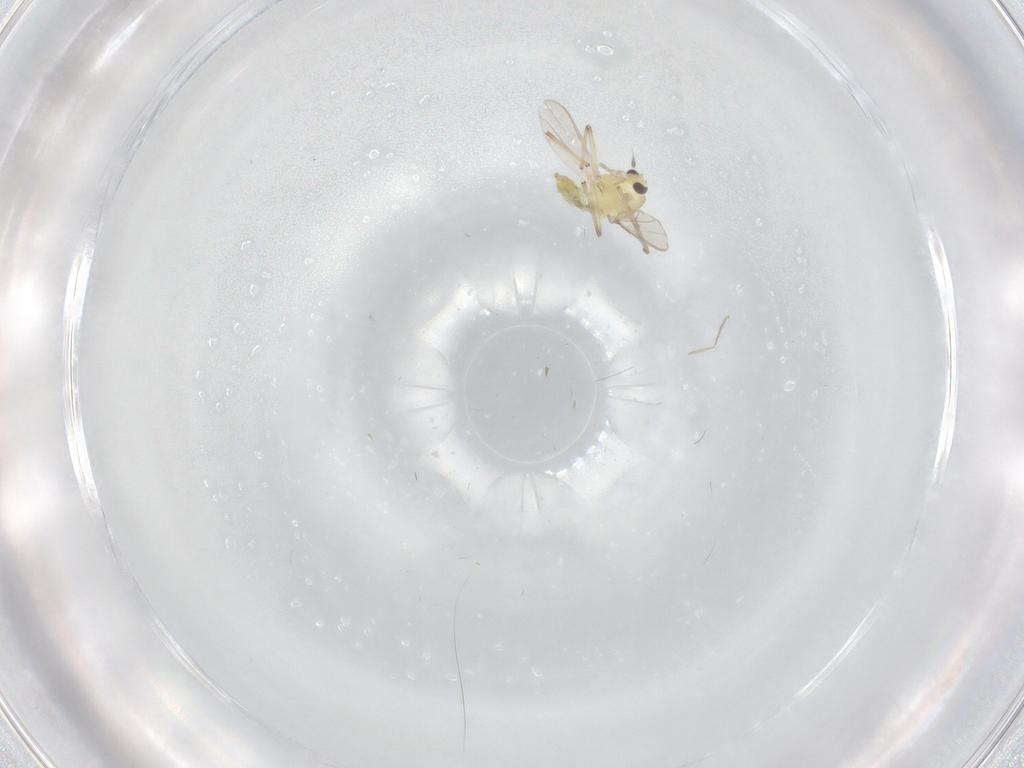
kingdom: Animalia
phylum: Arthropoda
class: Insecta
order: Diptera
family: Chironomidae
